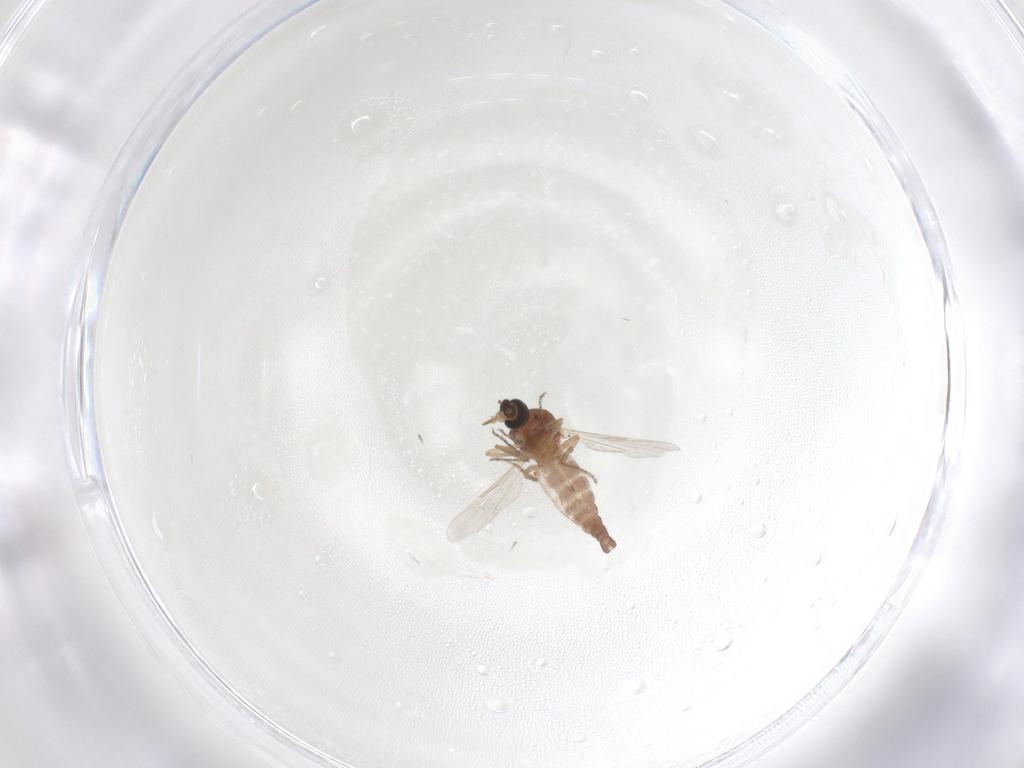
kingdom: Animalia
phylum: Arthropoda
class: Insecta
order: Diptera
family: Ceratopogonidae
